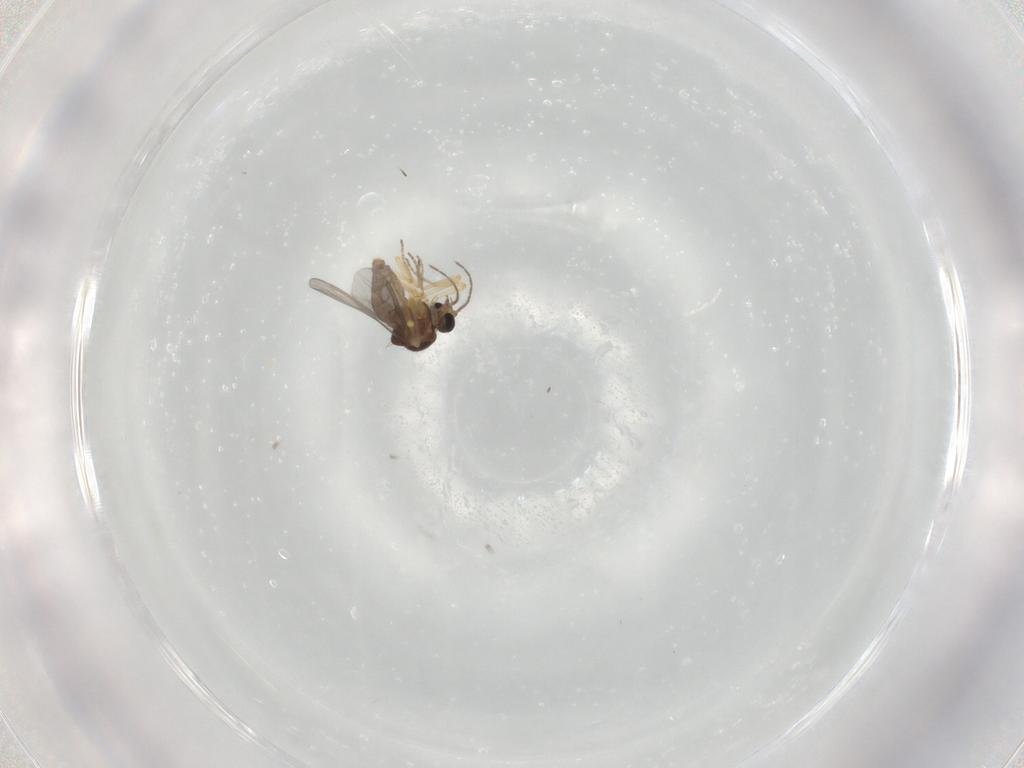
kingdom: Animalia
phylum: Arthropoda
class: Insecta
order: Diptera
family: Ceratopogonidae
